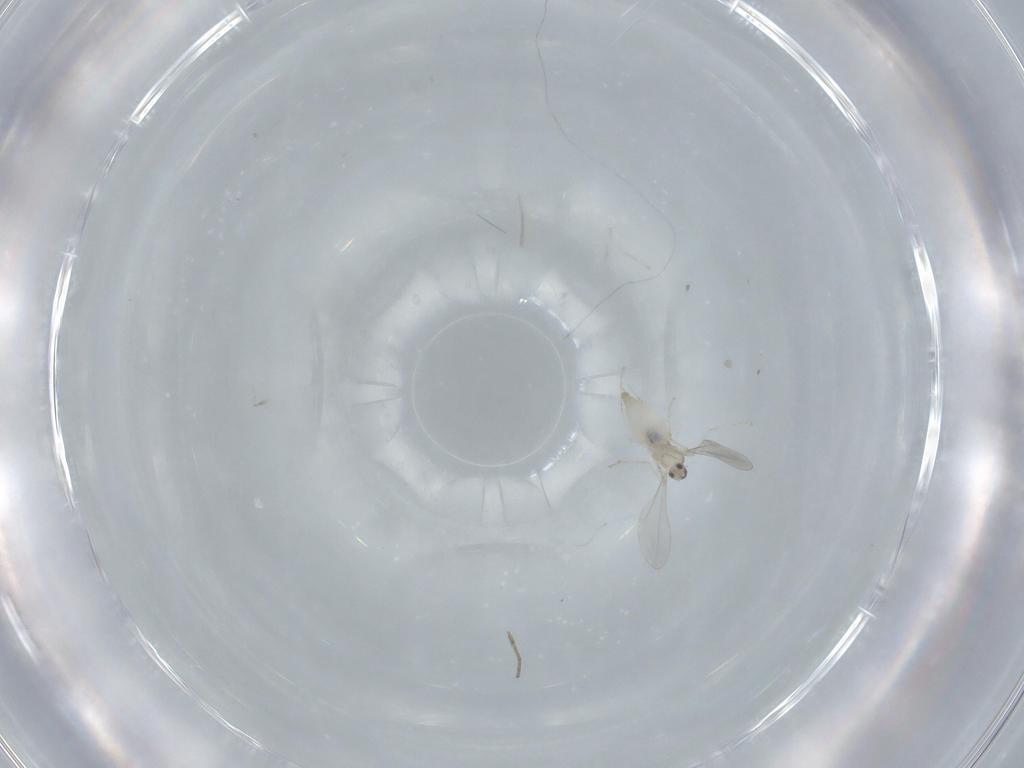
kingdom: Animalia
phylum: Arthropoda
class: Insecta
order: Diptera
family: Cecidomyiidae
